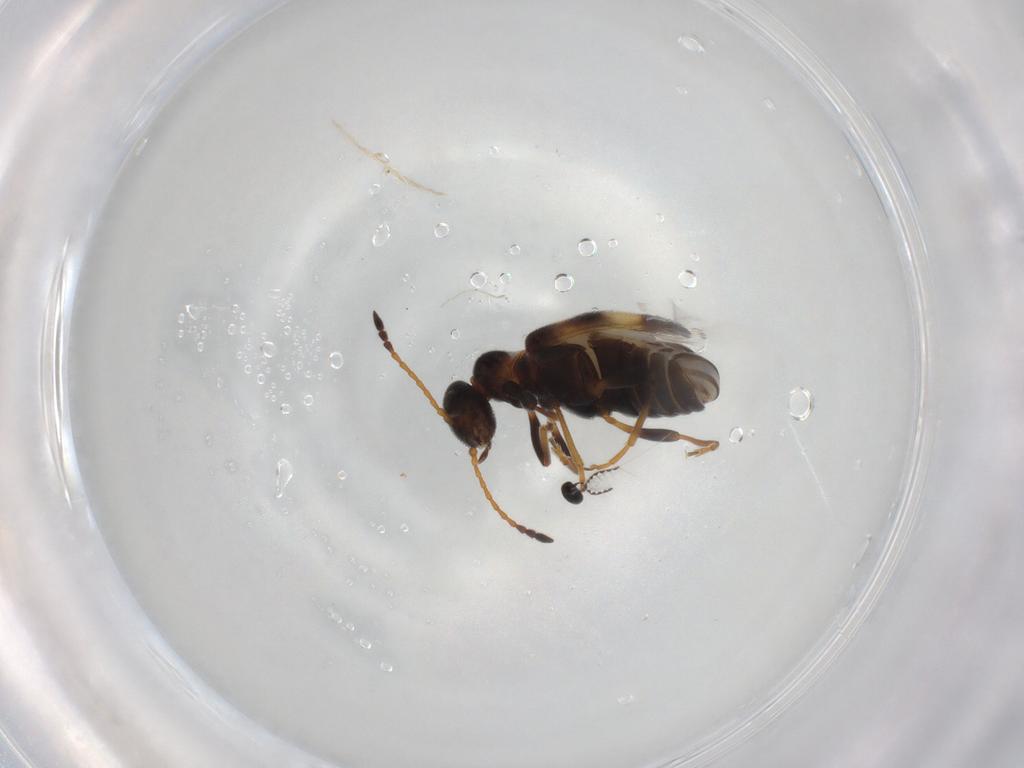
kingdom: Animalia
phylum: Arthropoda
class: Insecta
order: Coleoptera
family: Anthicidae
